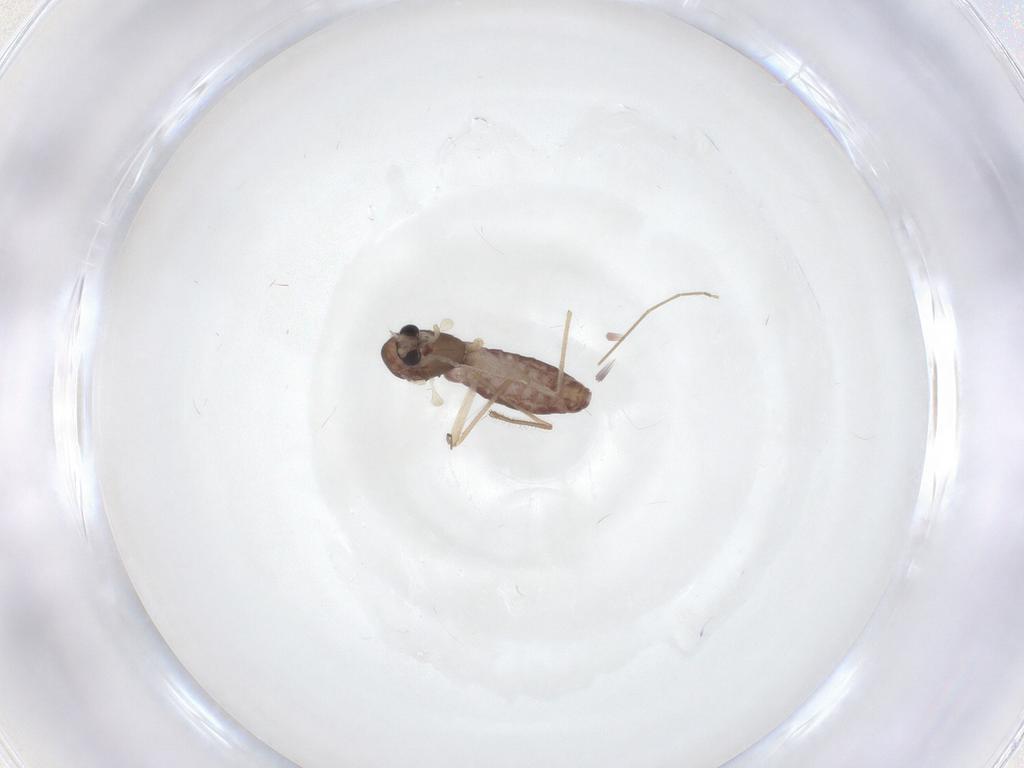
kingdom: Animalia
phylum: Arthropoda
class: Insecta
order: Diptera
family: Chironomidae
